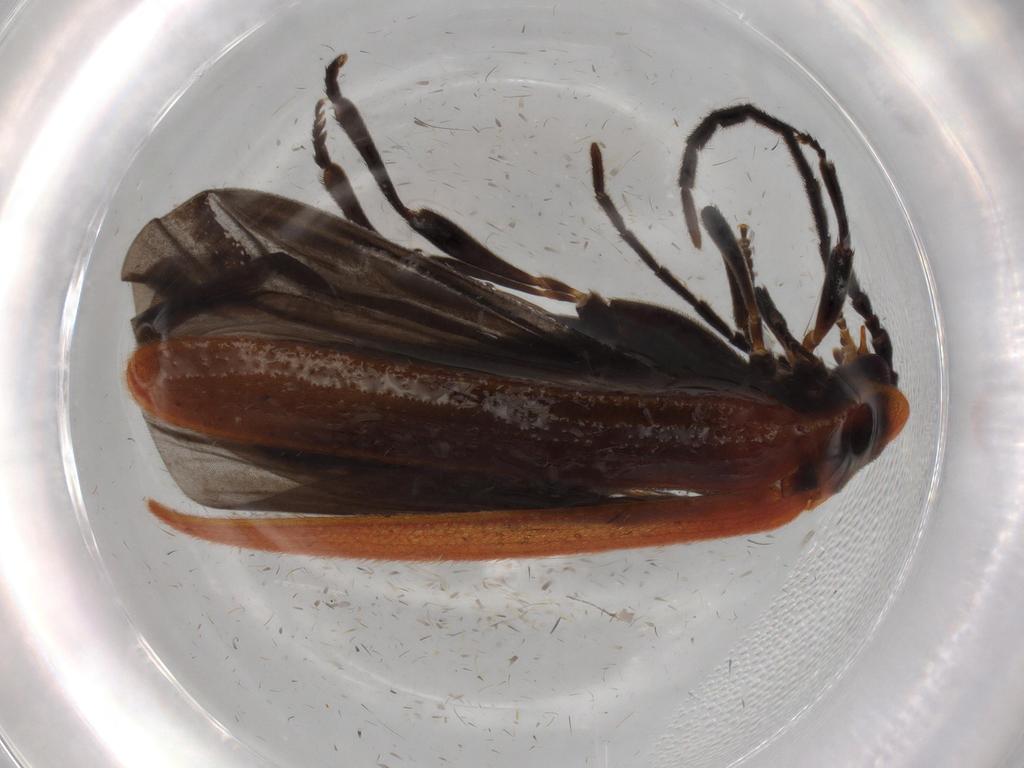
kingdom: Animalia
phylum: Arthropoda
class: Insecta
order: Coleoptera
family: Lycidae
